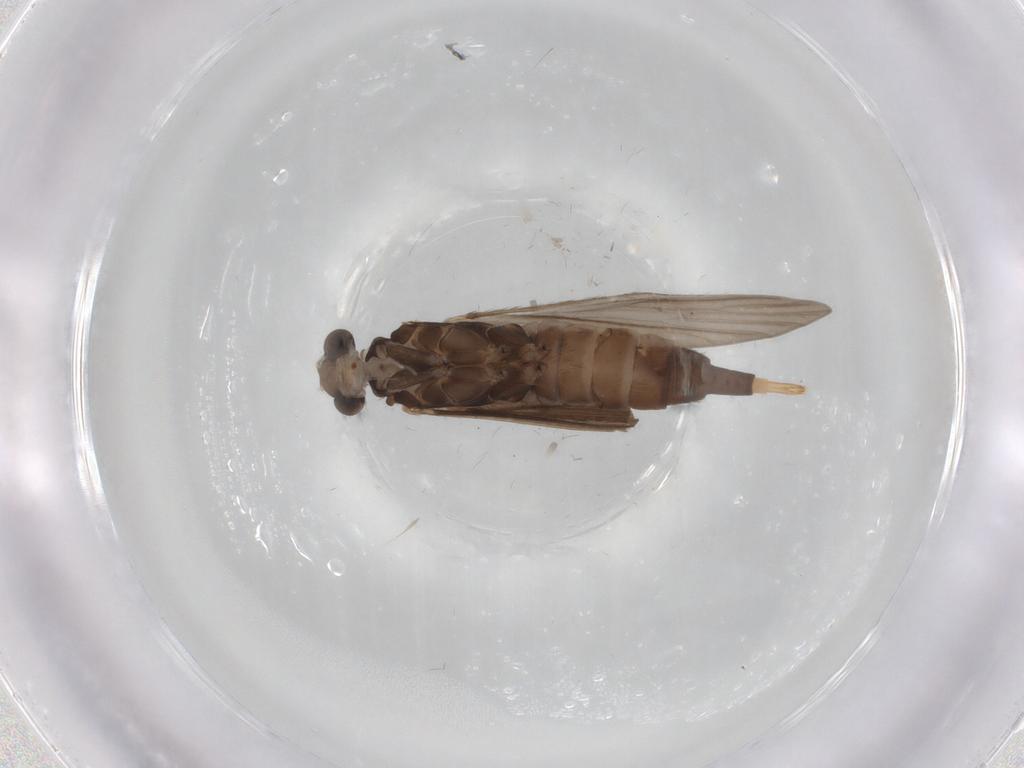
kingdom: Animalia
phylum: Arthropoda
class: Insecta
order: Trichoptera
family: Xiphocentronidae
